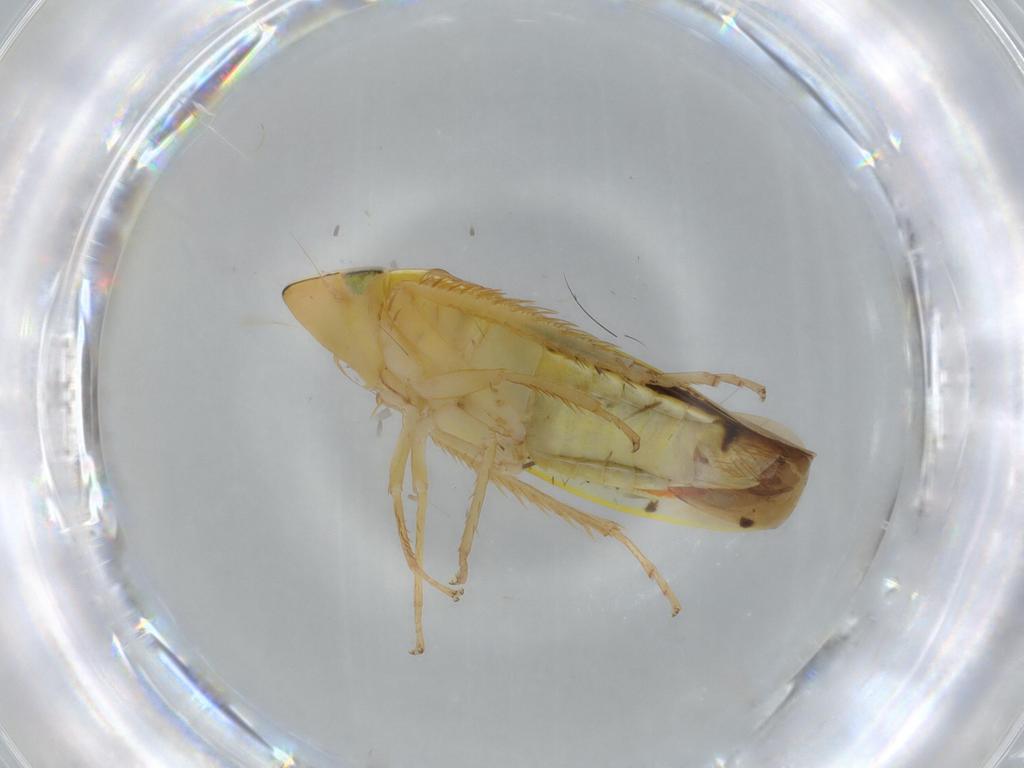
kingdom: Animalia
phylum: Arthropoda
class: Insecta
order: Hemiptera
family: Cicadellidae
